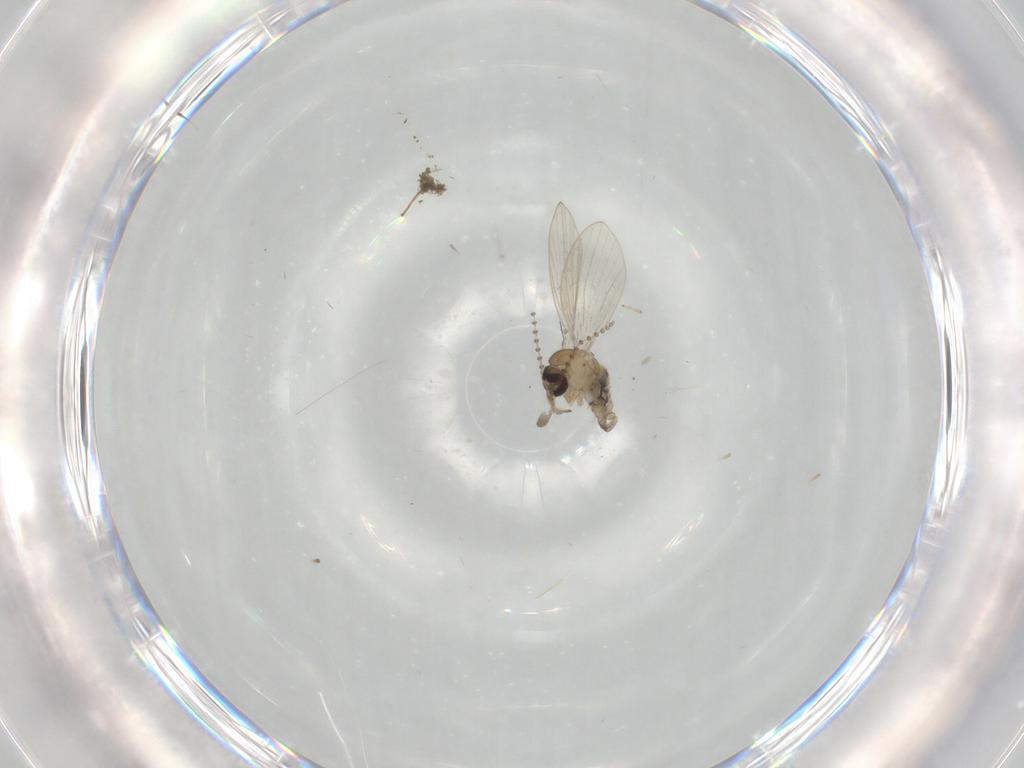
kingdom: Animalia
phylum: Arthropoda
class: Insecta
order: Diptera
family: Psychodidae
